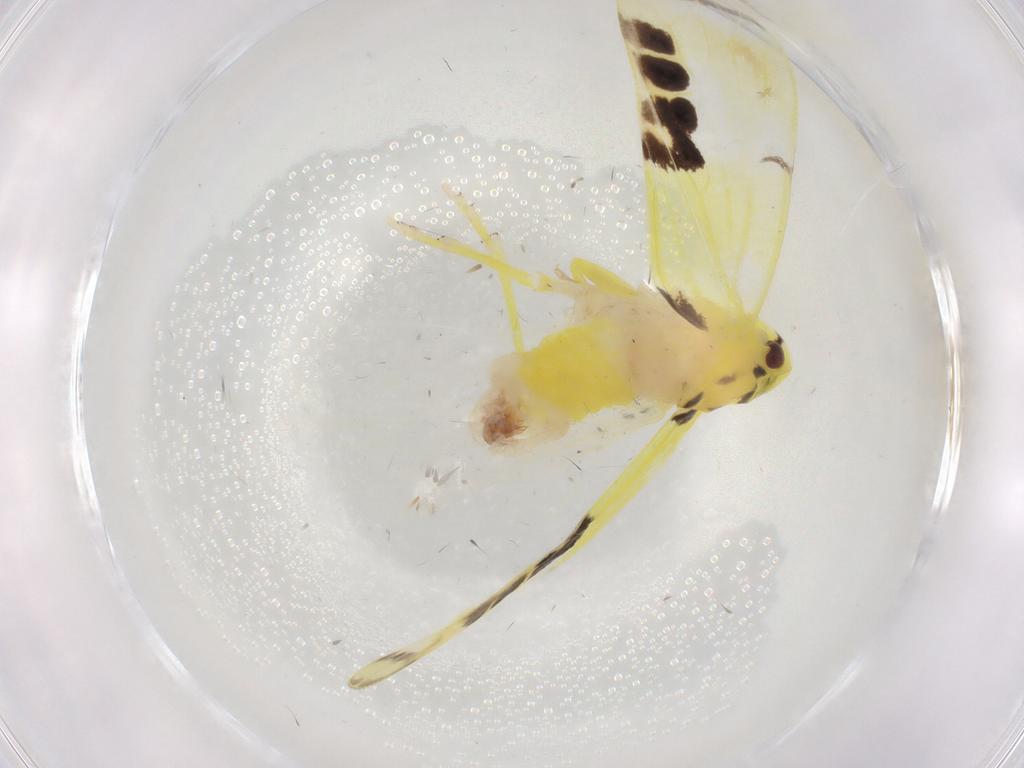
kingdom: Animalia
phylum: Arthropoda
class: Insecta
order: Hemiptera
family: Derbidae
